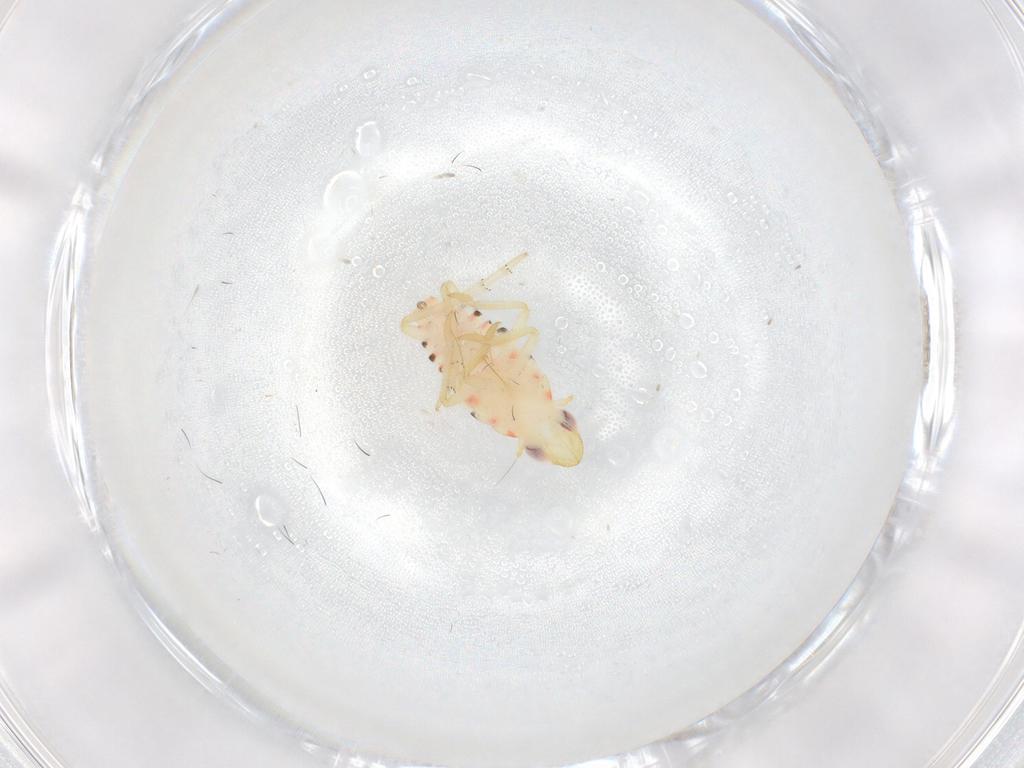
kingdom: Animalia
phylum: Arthropoda
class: Insecta
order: Hemiptera
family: Tropiduchidae
